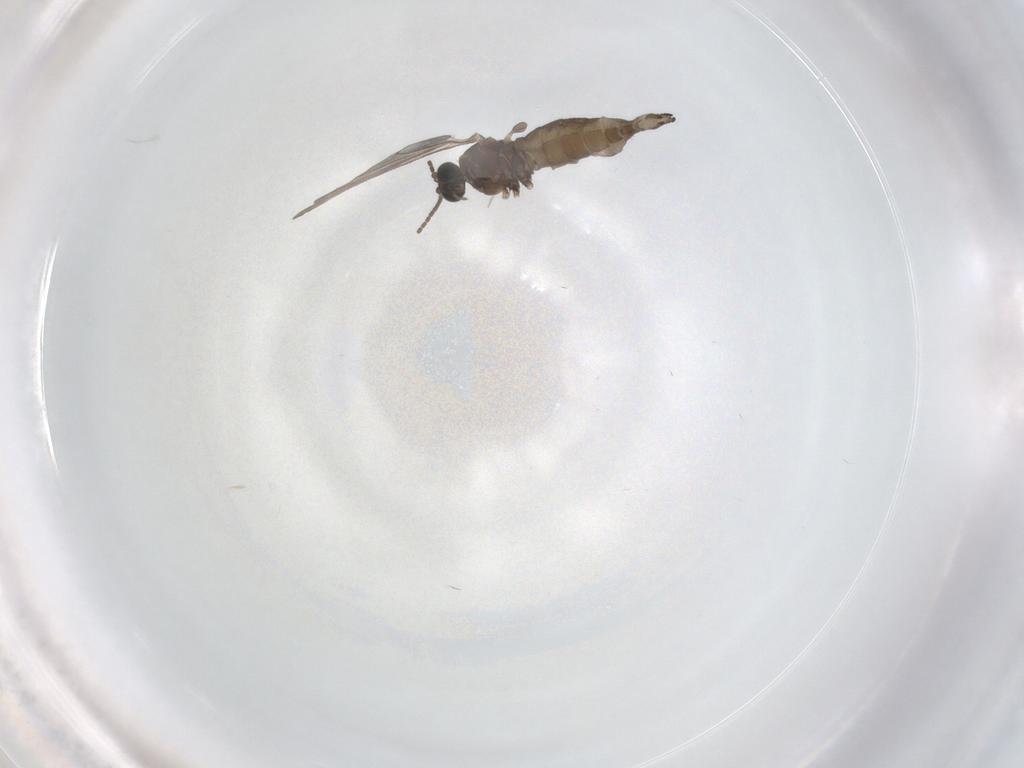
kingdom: Animalia
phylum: Arthropoda
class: Insecta
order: Diptera
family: Sciaridae
